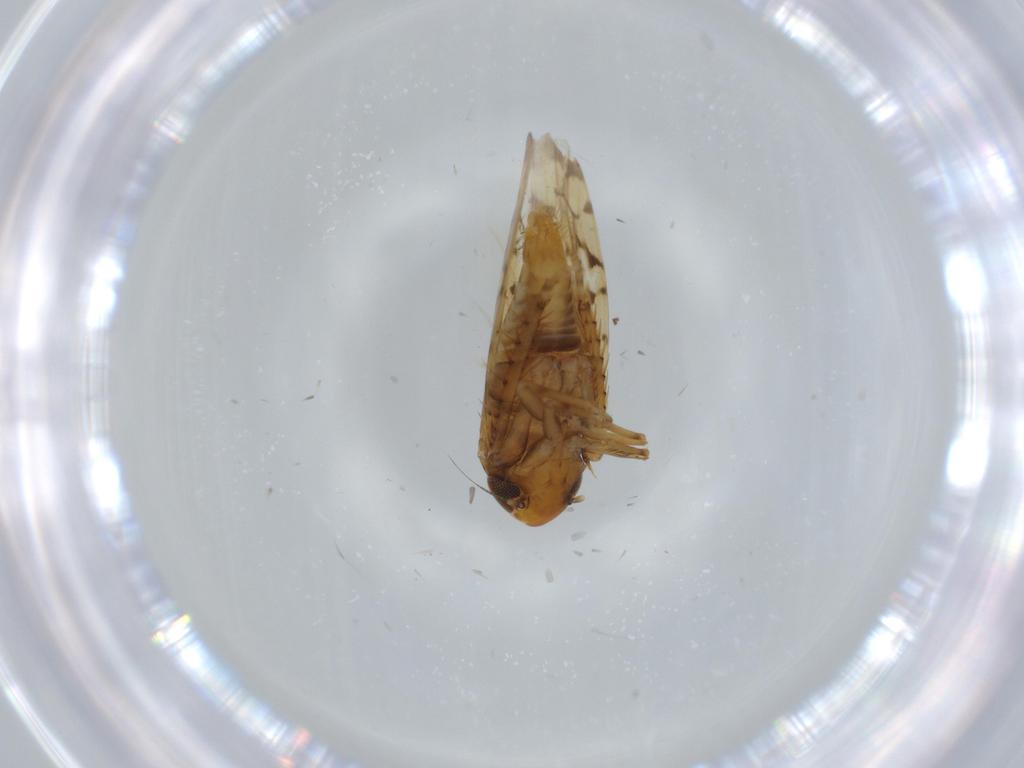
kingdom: Animalia
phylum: Arthropoda
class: Insecta
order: Hemiptera
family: Cicadellidae
